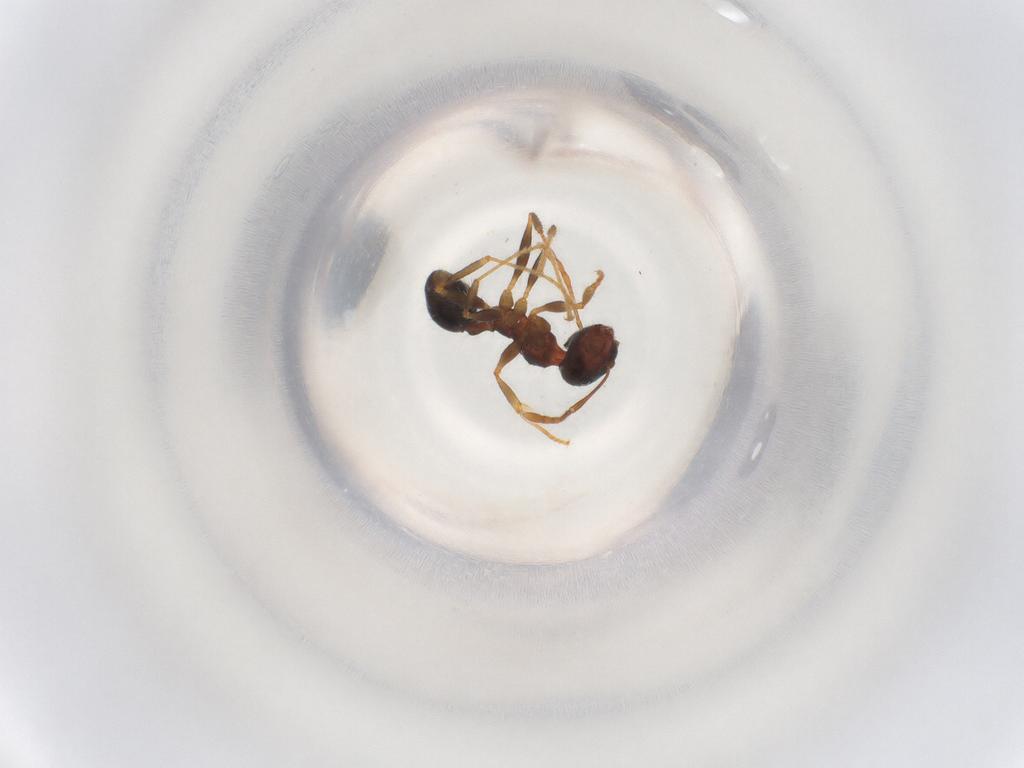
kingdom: Animalia
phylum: Arthropoda
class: Insecta
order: Hymenoptera
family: Formicidae
